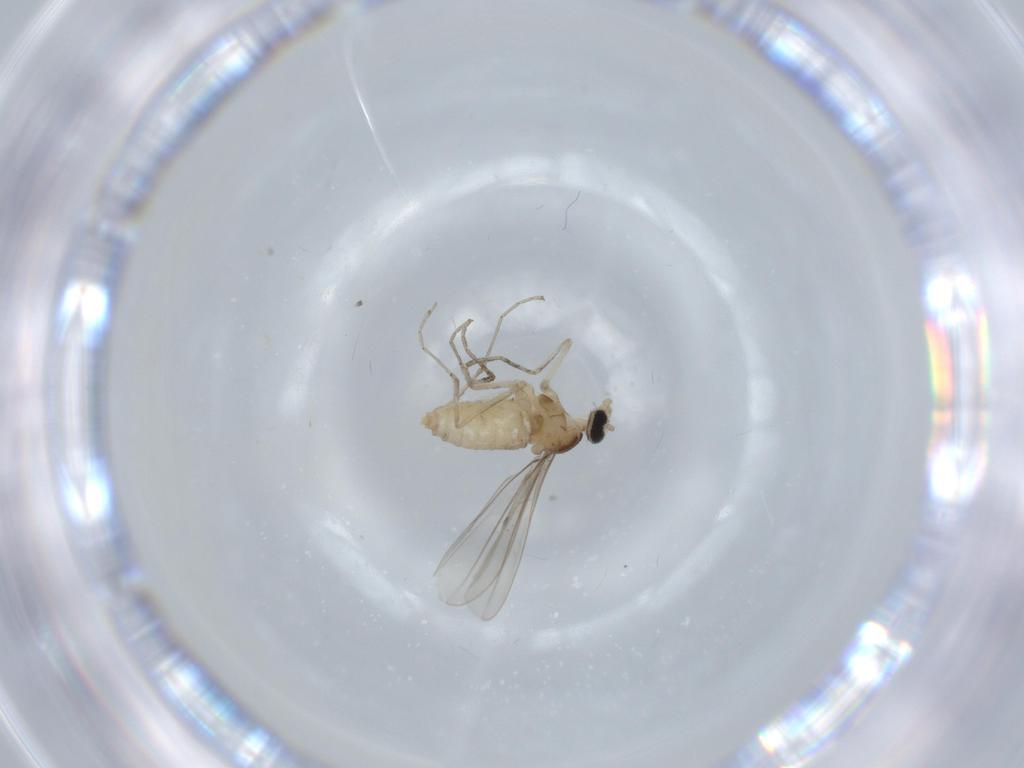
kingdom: Animalia
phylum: Arthropoda
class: Insecta
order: Diptera
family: Cecidomyiidae
